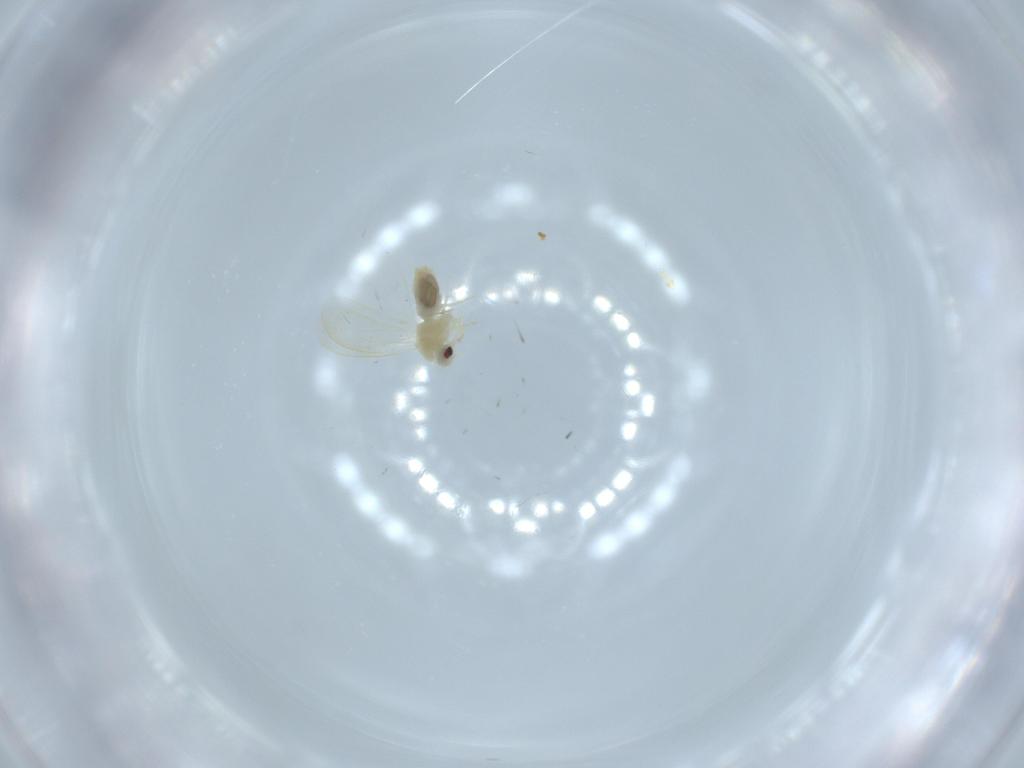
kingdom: Animalia
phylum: Arthropoda
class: Insecta
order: Hemiptera
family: Aleyrodidae
